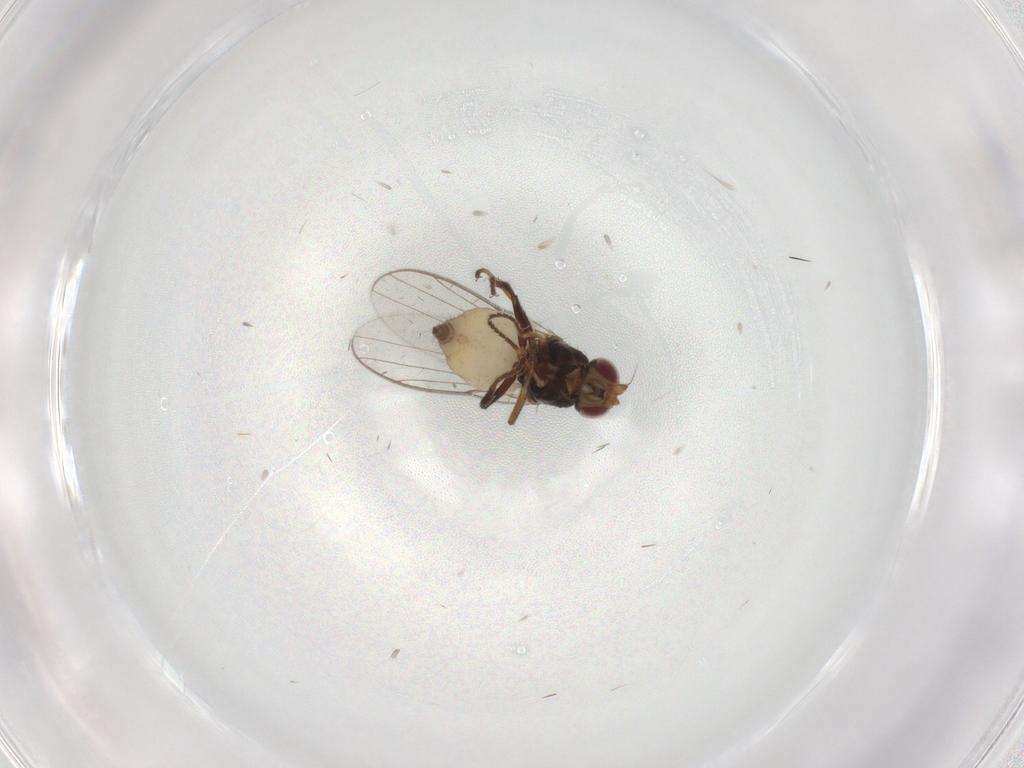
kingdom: Animalia
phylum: Arthropoda
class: Insecta
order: Diptera
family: Chloropidae
